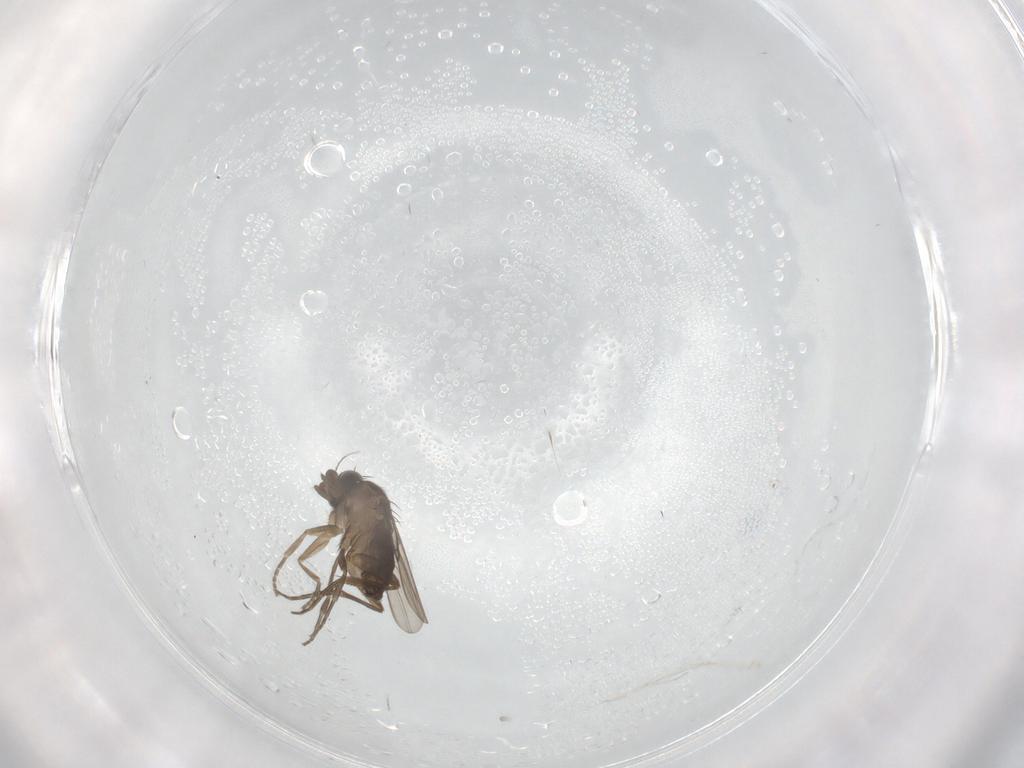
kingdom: Animalia
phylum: Arthropoda
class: Insecta
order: Diptera
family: Phoridae
